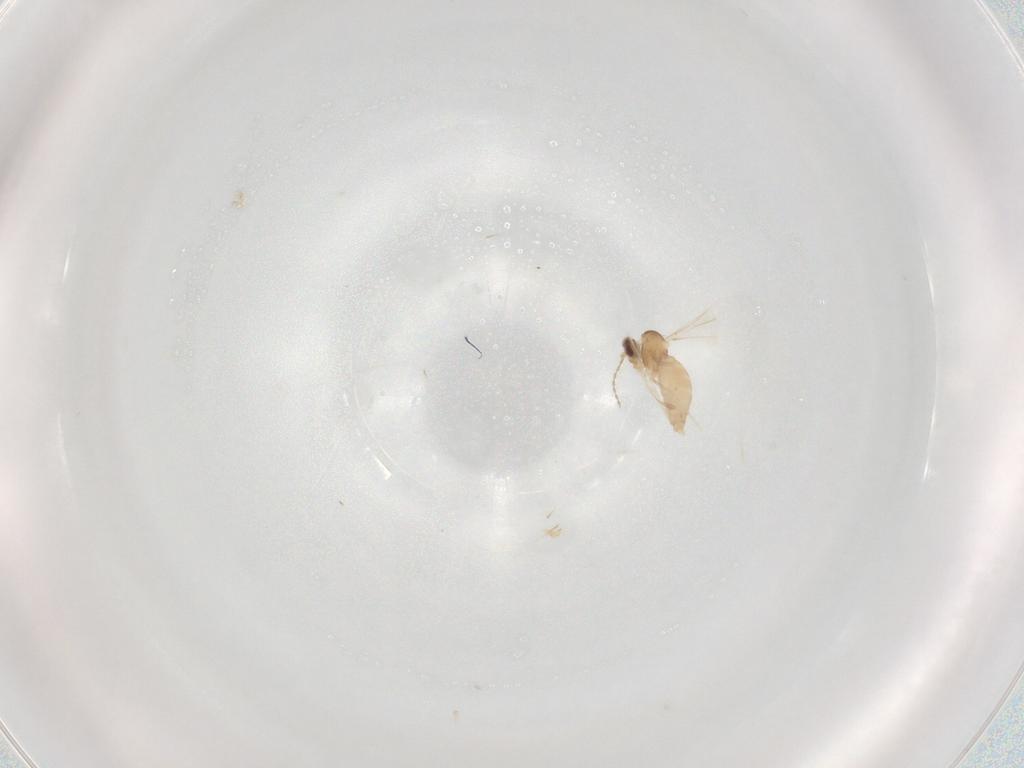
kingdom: Animalia
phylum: Arthropoda
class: Insecta
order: Diptera
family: Cecidomyiidae
